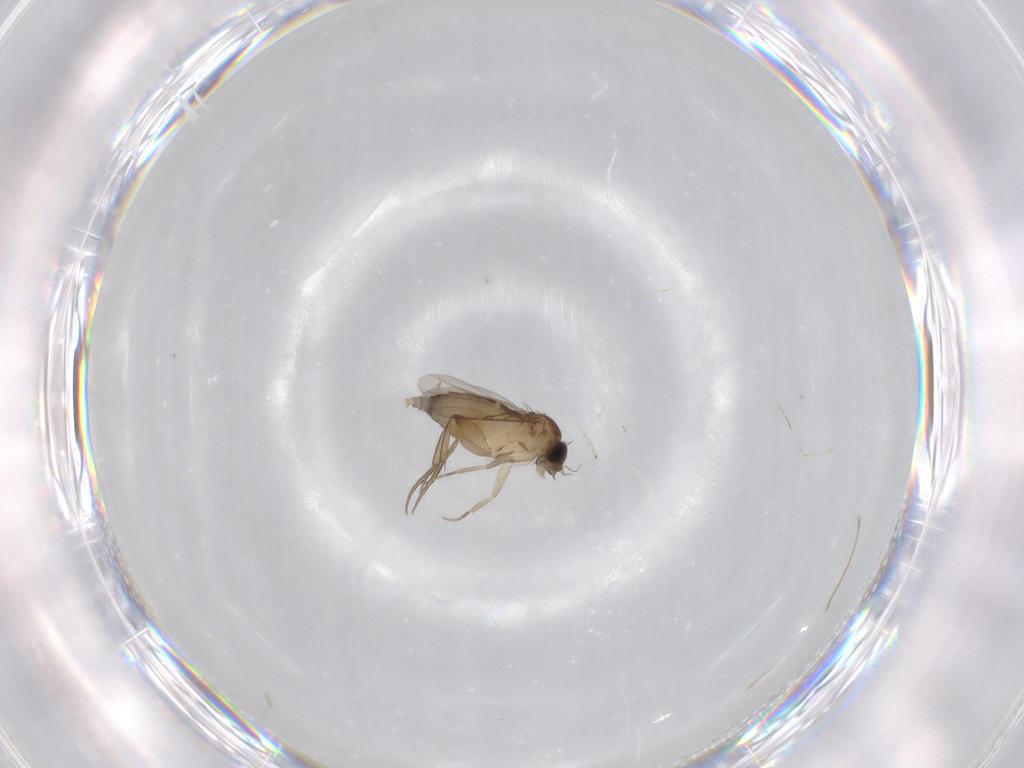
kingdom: Animalia
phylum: Arthropoda
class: Insecta
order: Diptera
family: Phoridae
